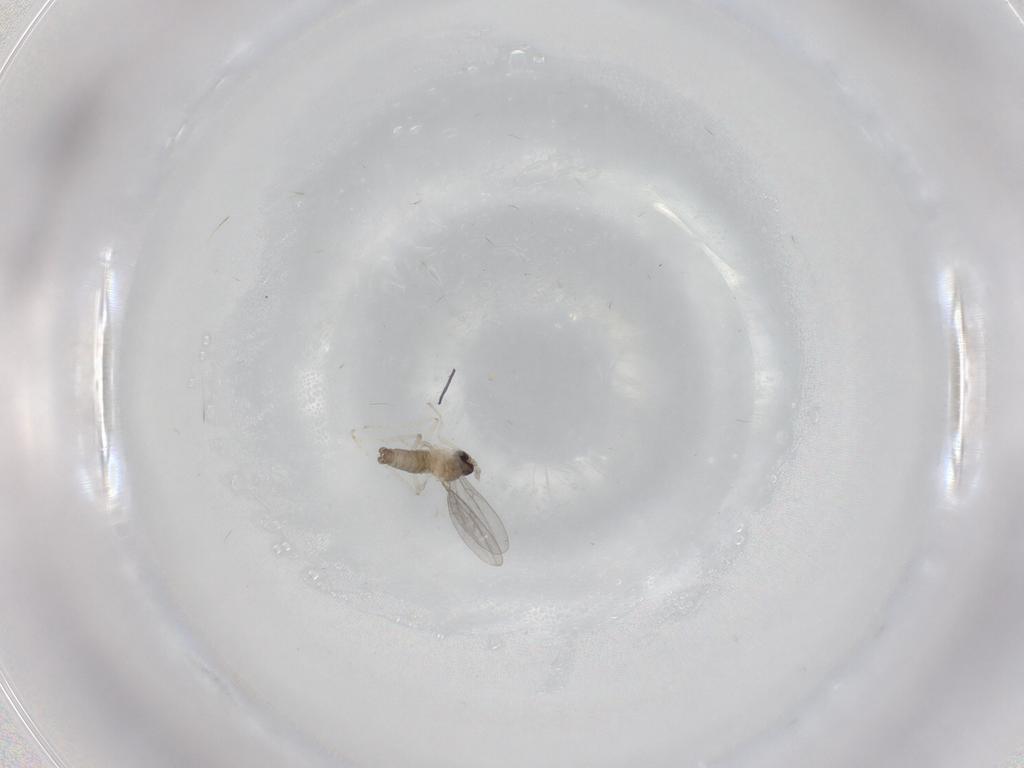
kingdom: Animalia
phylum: Arthropoda
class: Insecta
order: Diptera
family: Cecidomyiidae
